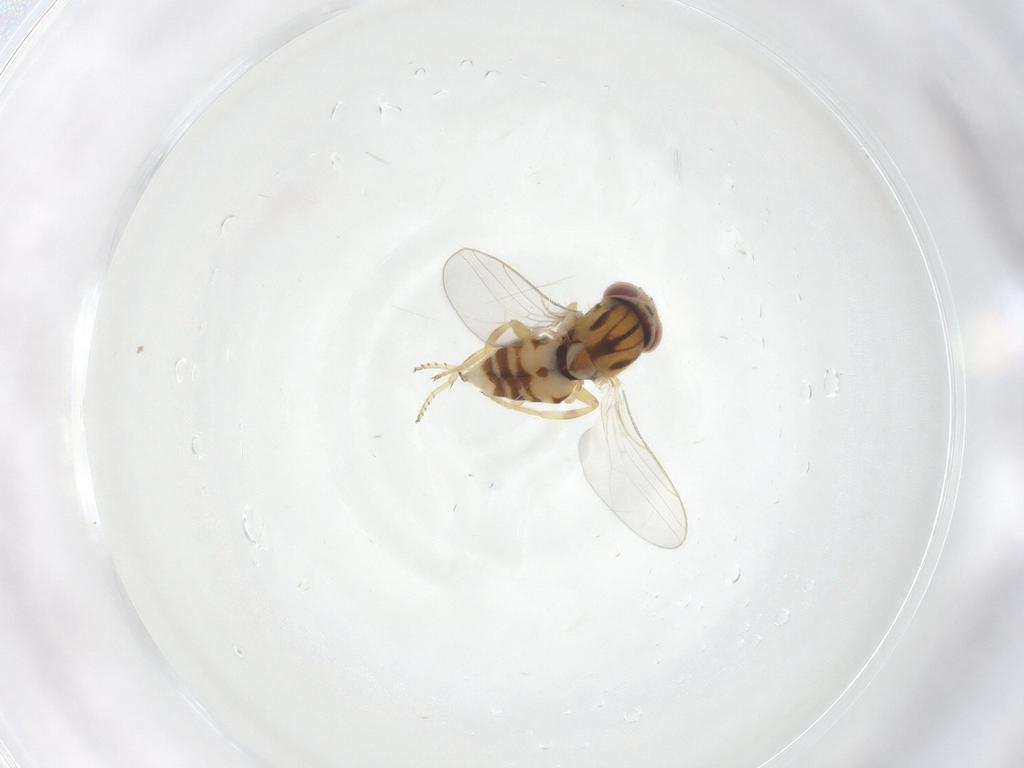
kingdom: Animalia
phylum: Arthropoda
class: Insecta
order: Diptera
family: Chloropidae
